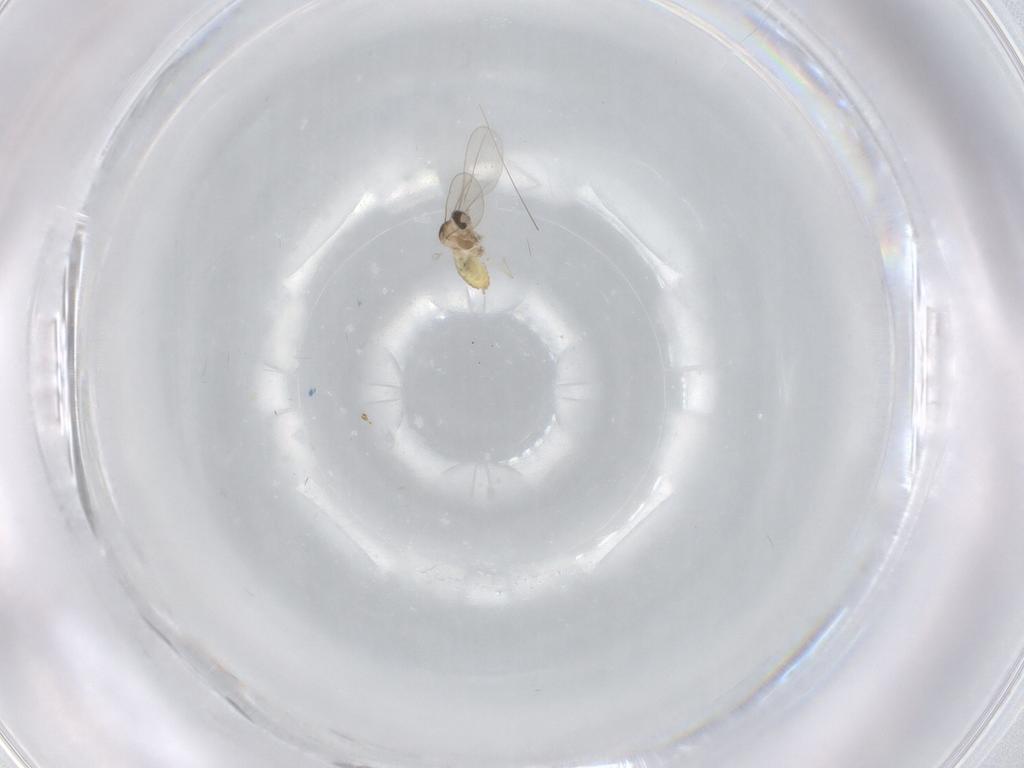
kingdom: Animalia
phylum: Arthropoda
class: Insecta
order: Diptera
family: Cecidomyiidae
